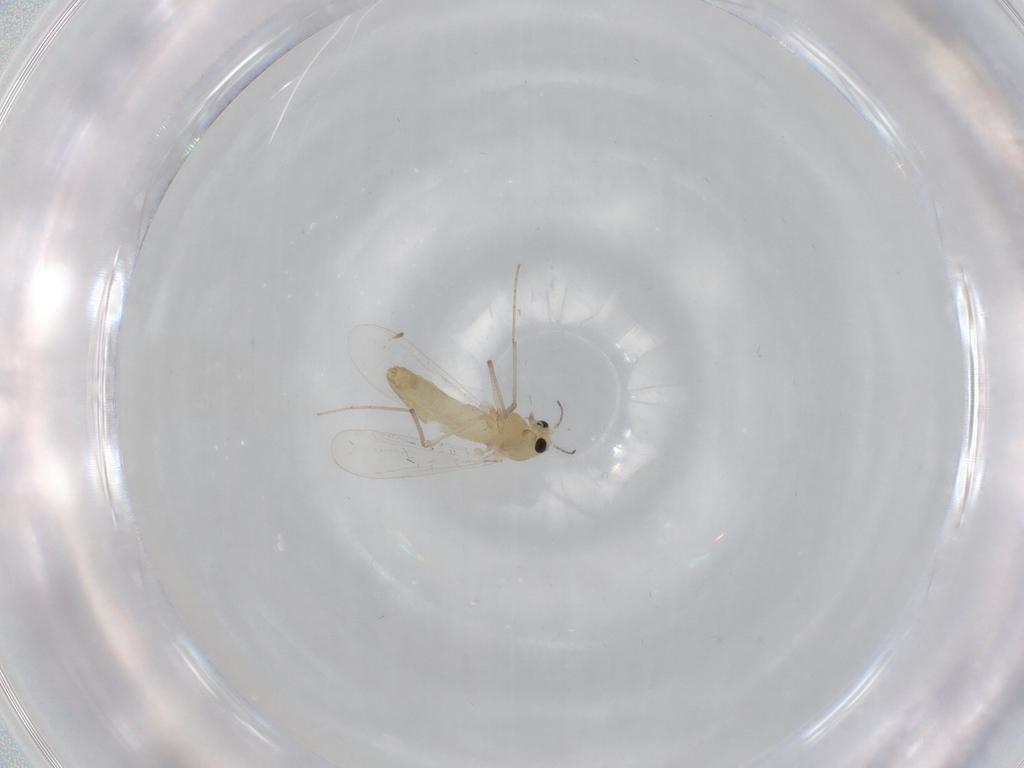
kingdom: Animalia
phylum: Arthropoda
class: Insecta
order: Diptera
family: Chironomidae
